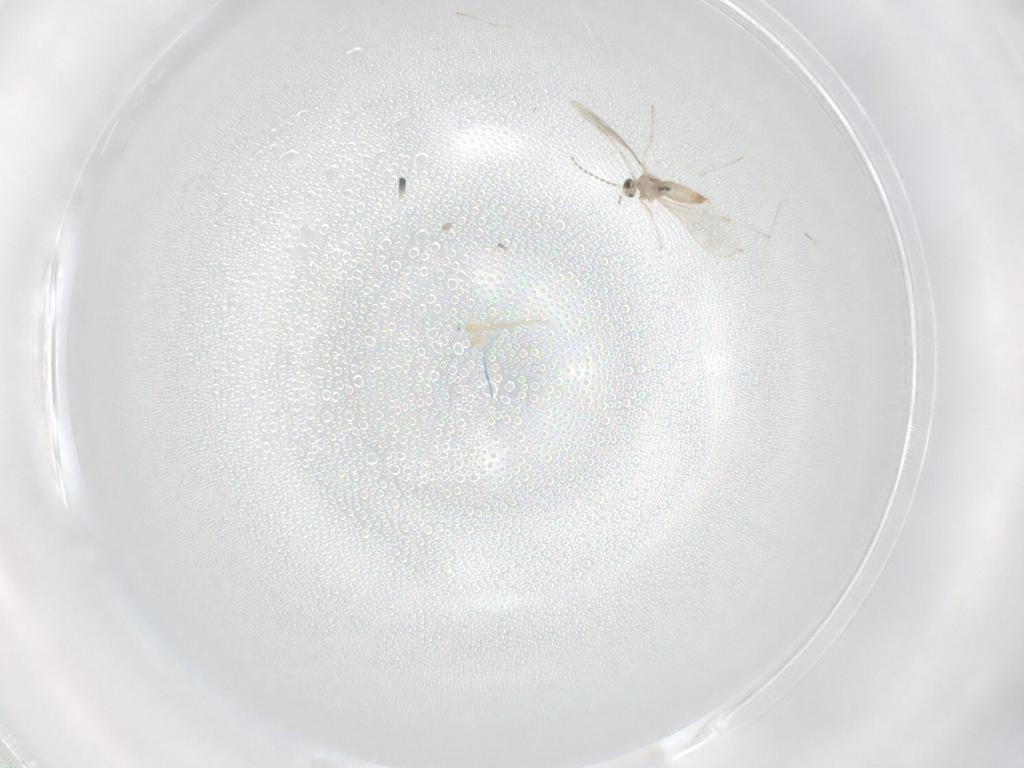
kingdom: Animalia
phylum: Arthropoda
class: Insecta
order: Diptera
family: Cecidomyiidae
